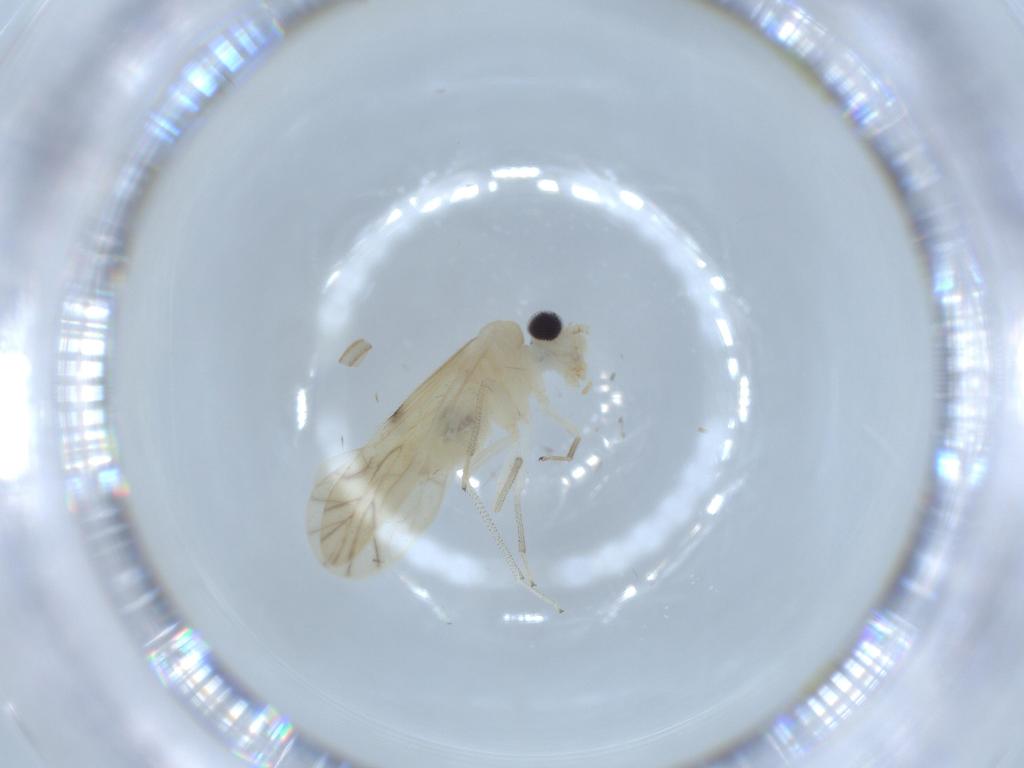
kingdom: Animalia
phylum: Arthropoda
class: Insecta
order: Psocodea
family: Caeciliusidae
